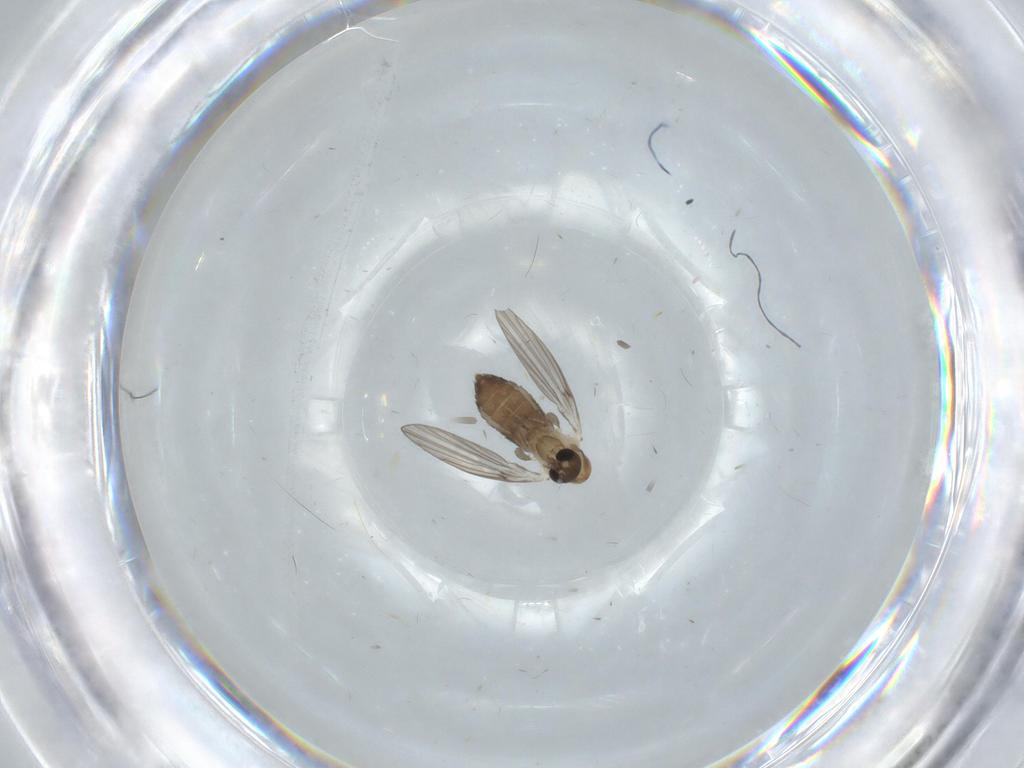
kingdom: Animalia
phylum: Arthropoda
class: Insecta
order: Diptera
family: Psychodidae
